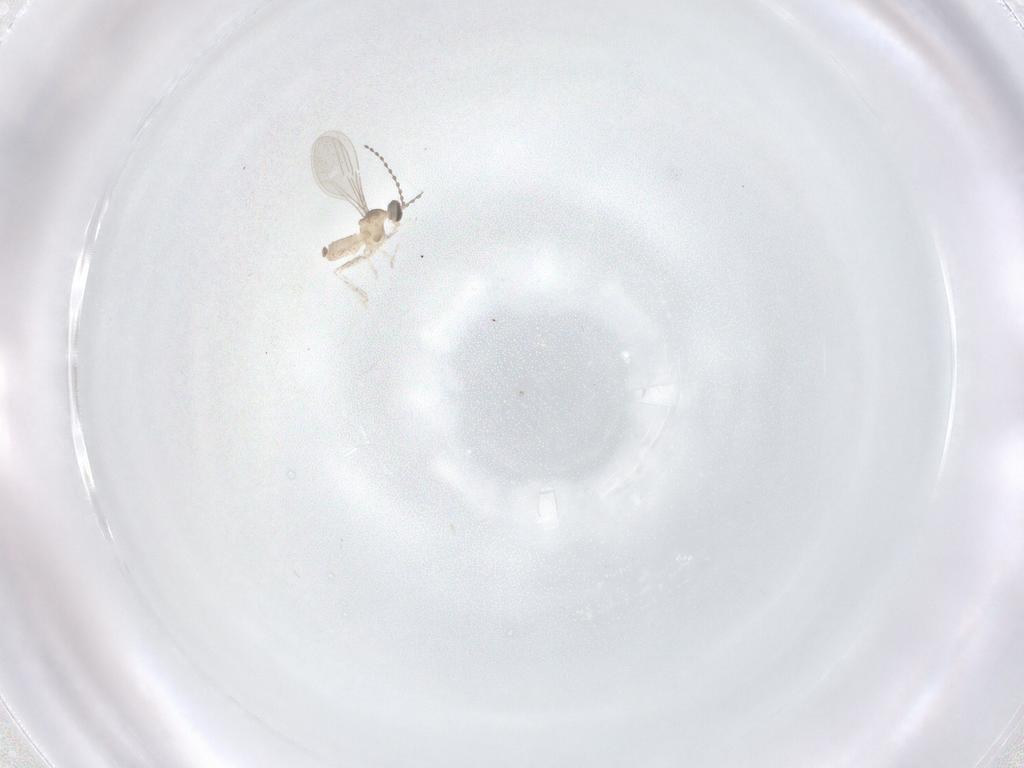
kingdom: Animalia
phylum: Arthropoda
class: Insecta
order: Diptera
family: Cecidomyiidae
